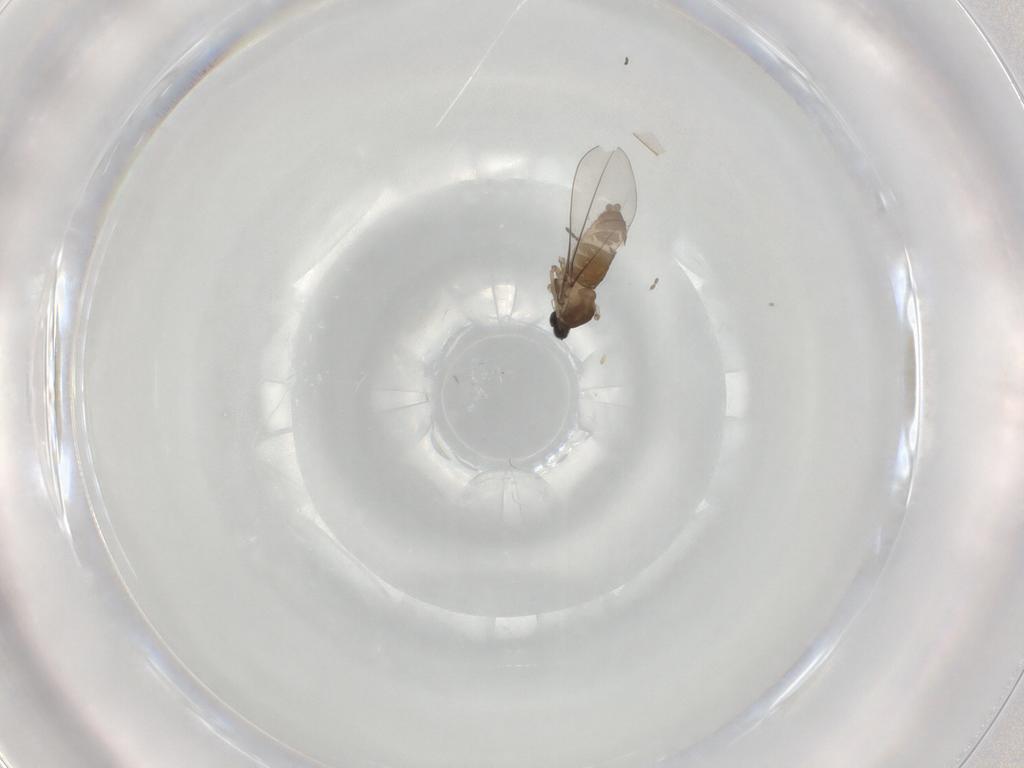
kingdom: Animalia
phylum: Arthropoda
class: Insecta
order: Diptera
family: Cecidomyiidae
